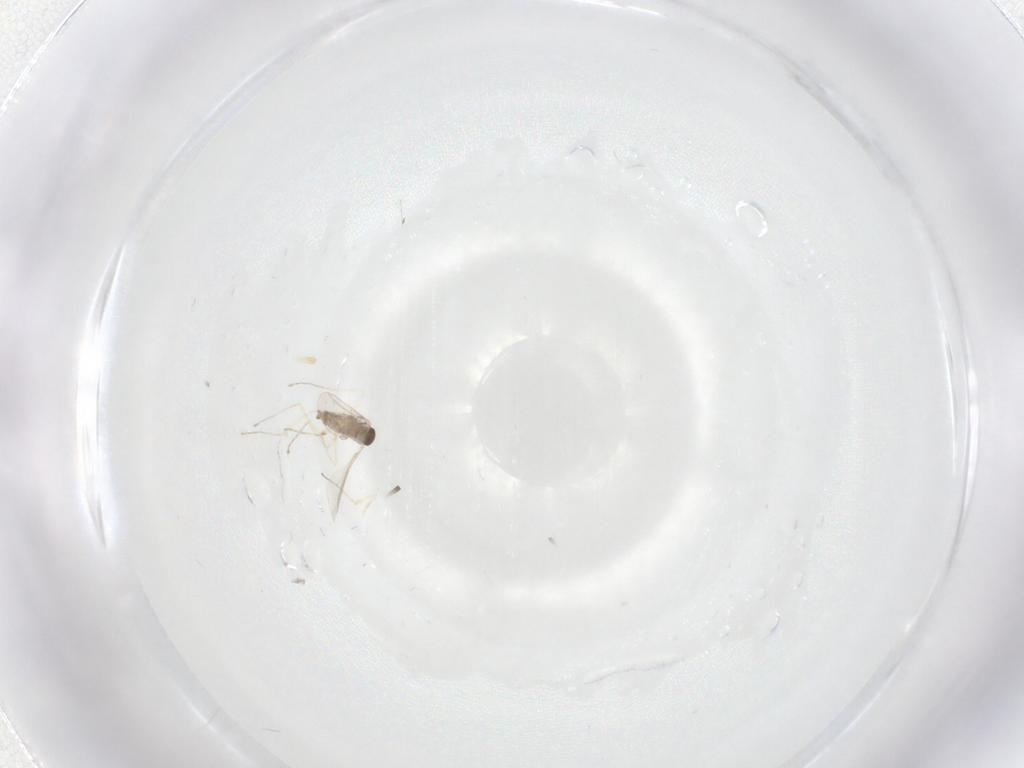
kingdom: Animalia
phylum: Arthropoda
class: Insecta
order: Diptera
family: Cecidomyiidae
